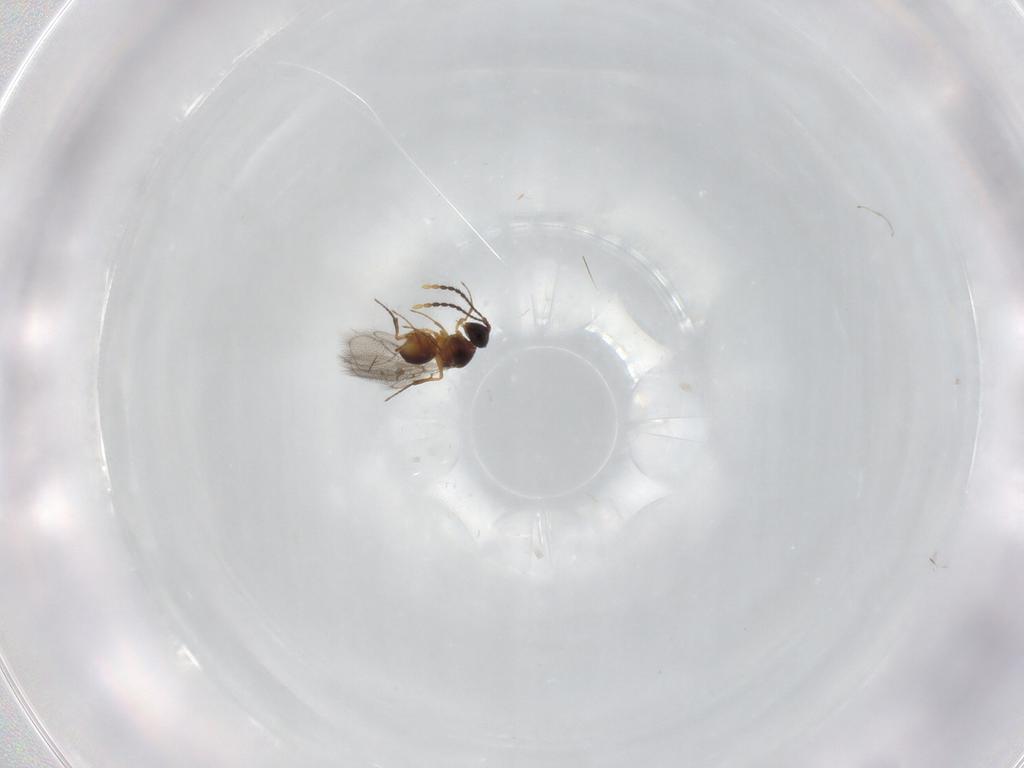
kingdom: Animalia
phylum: Arthropoda
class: Insecta
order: Hymenoptera
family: Figitidae
